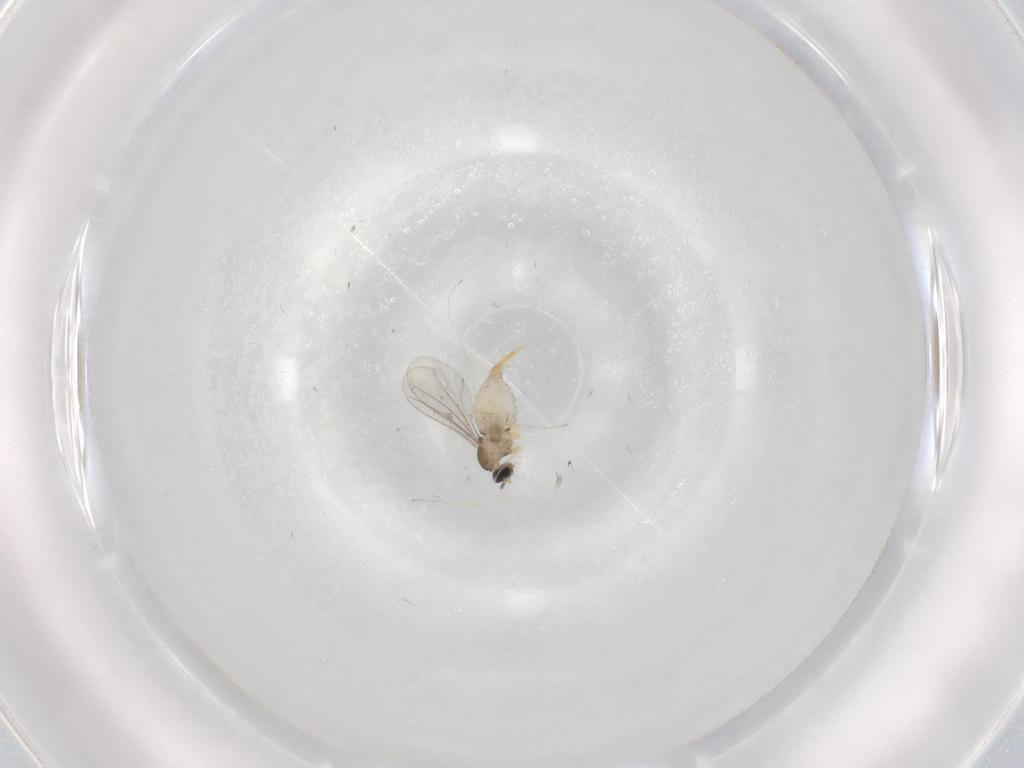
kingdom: Animalia
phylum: Arthropoda
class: Insecta
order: Diptera
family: Cecidomyiidae
